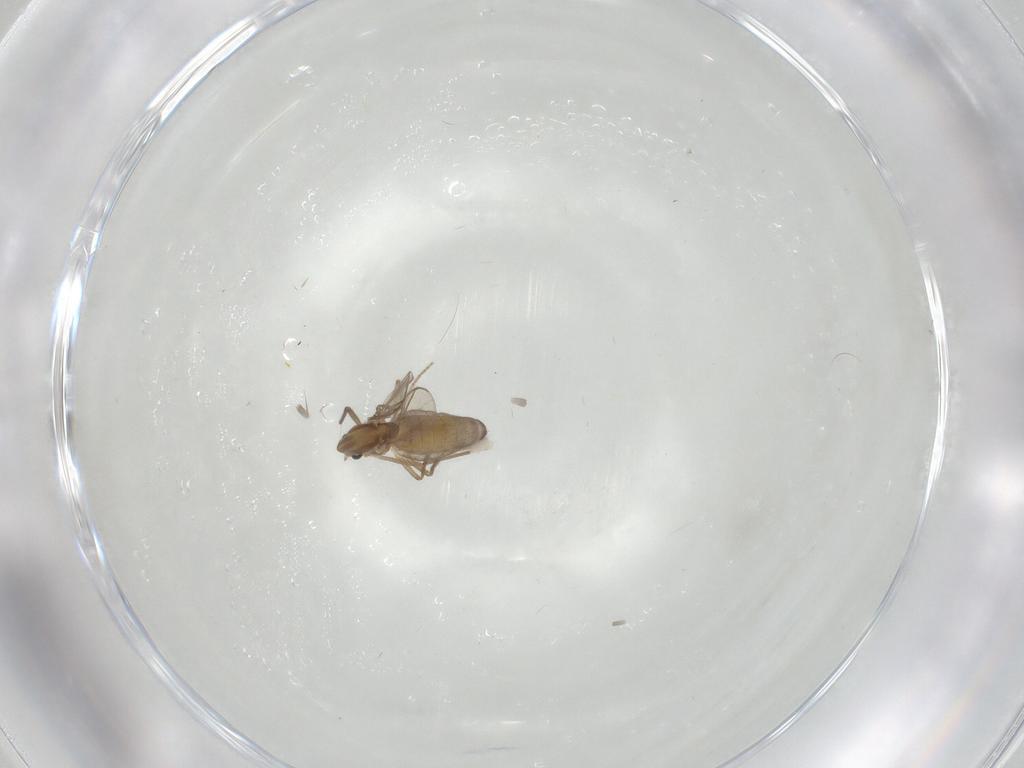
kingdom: Animalia
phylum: Arthropoda
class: Insecta
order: Diptera
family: Chironomidae
